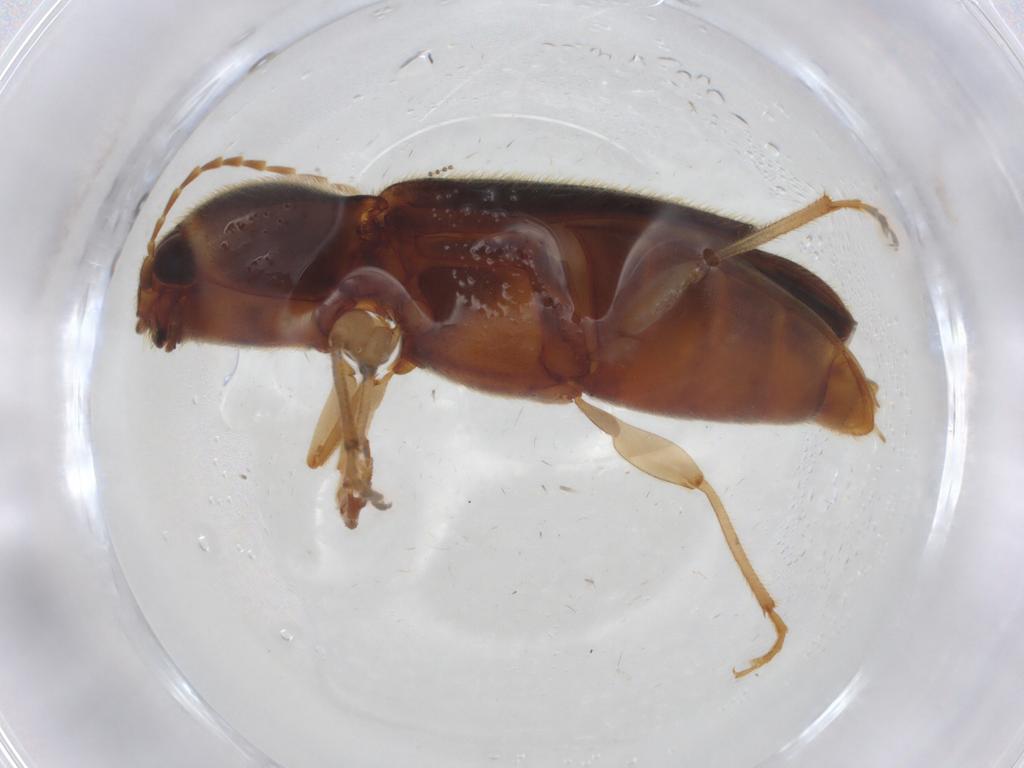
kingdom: Animalia
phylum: Arthropoda
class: Insecta
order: Coleoptera
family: Elateridae
